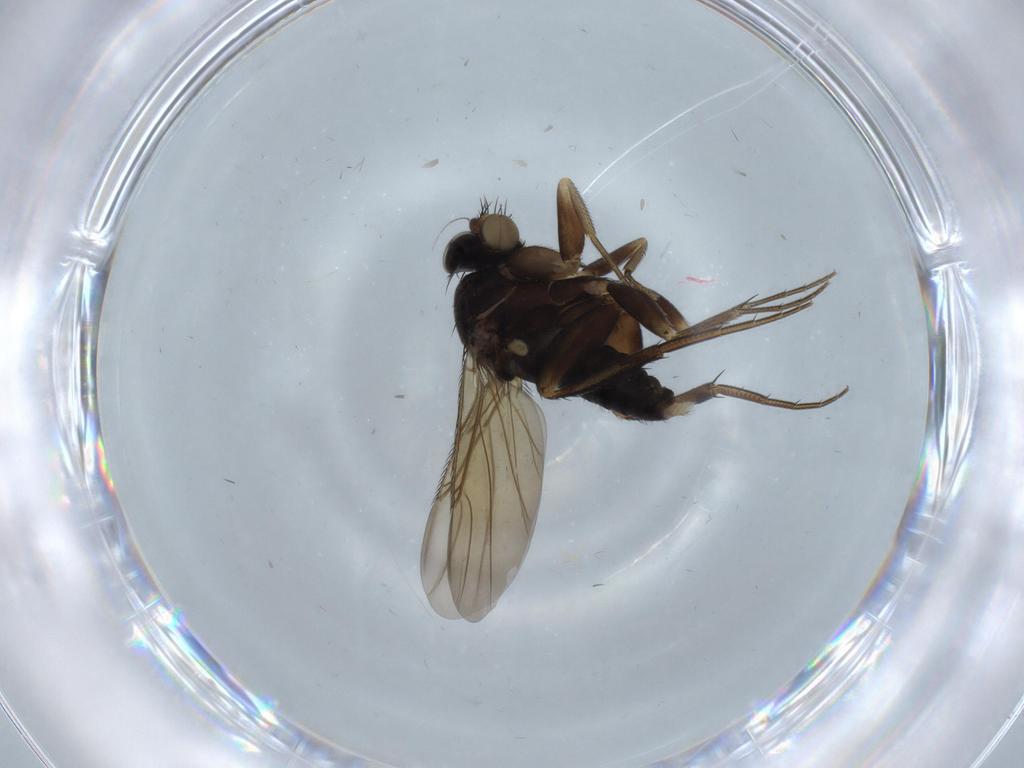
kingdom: Animalia
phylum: Arthropoda
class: Insecta
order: Diptera
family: Phoridae
